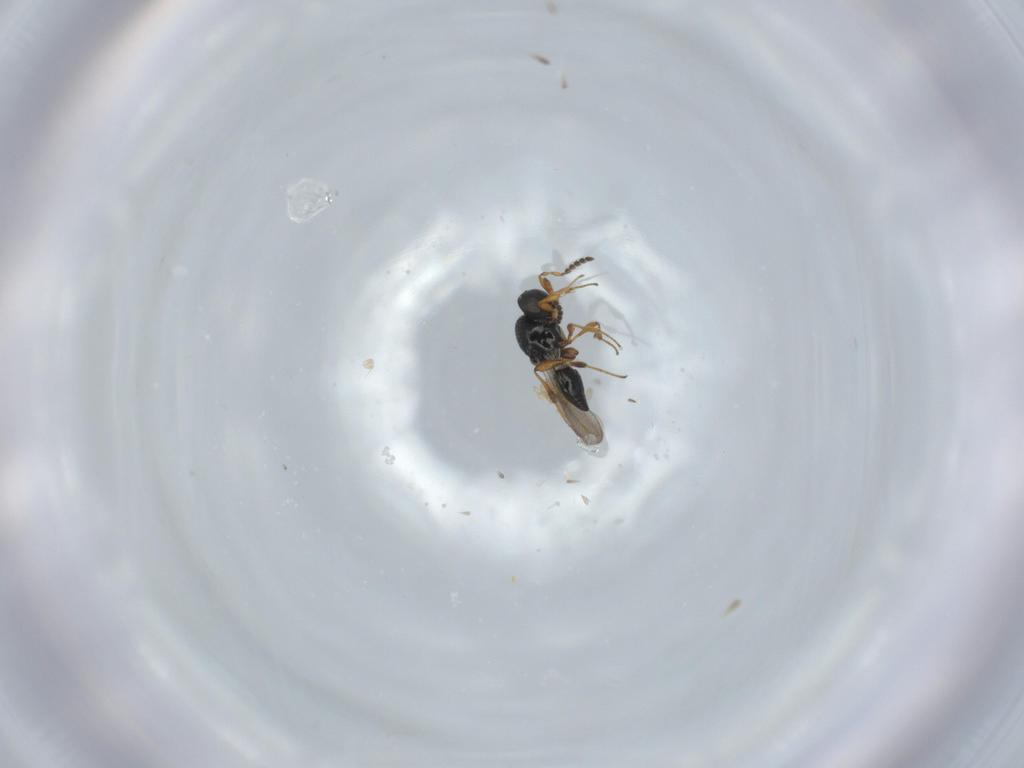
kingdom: Animalia
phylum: Arthropoda
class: Insecta
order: Hymenoptera
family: Platygastridae
